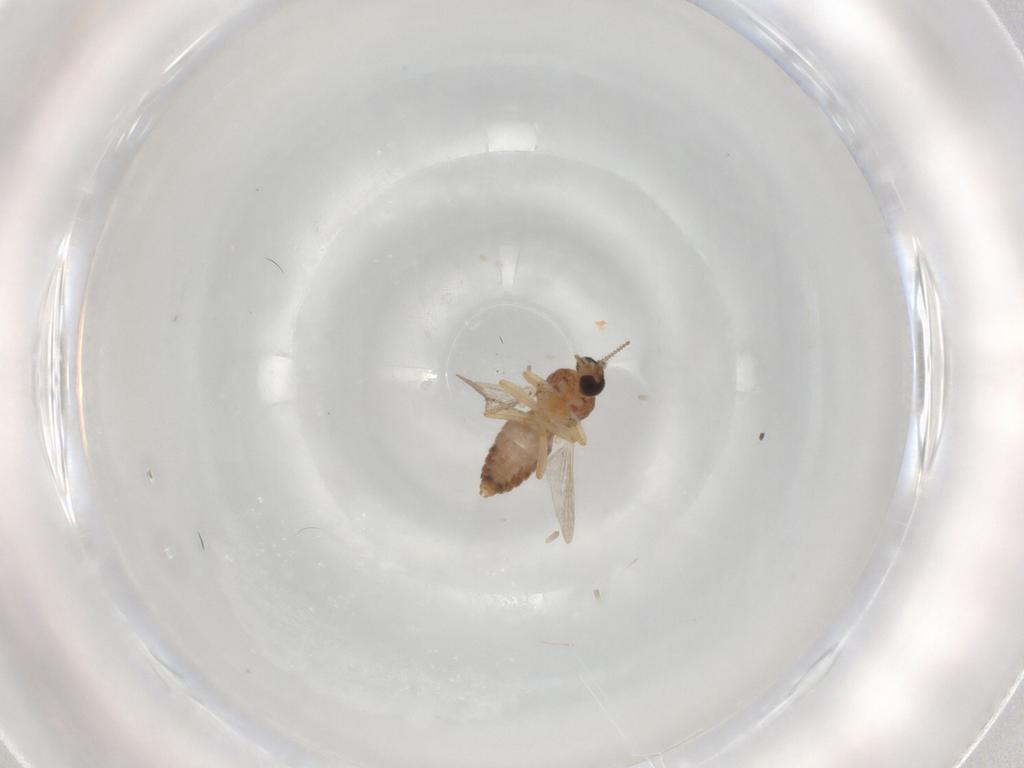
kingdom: Animalia
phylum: Arthropoda
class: Insecta
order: Diptera
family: Ceratopogonidae
